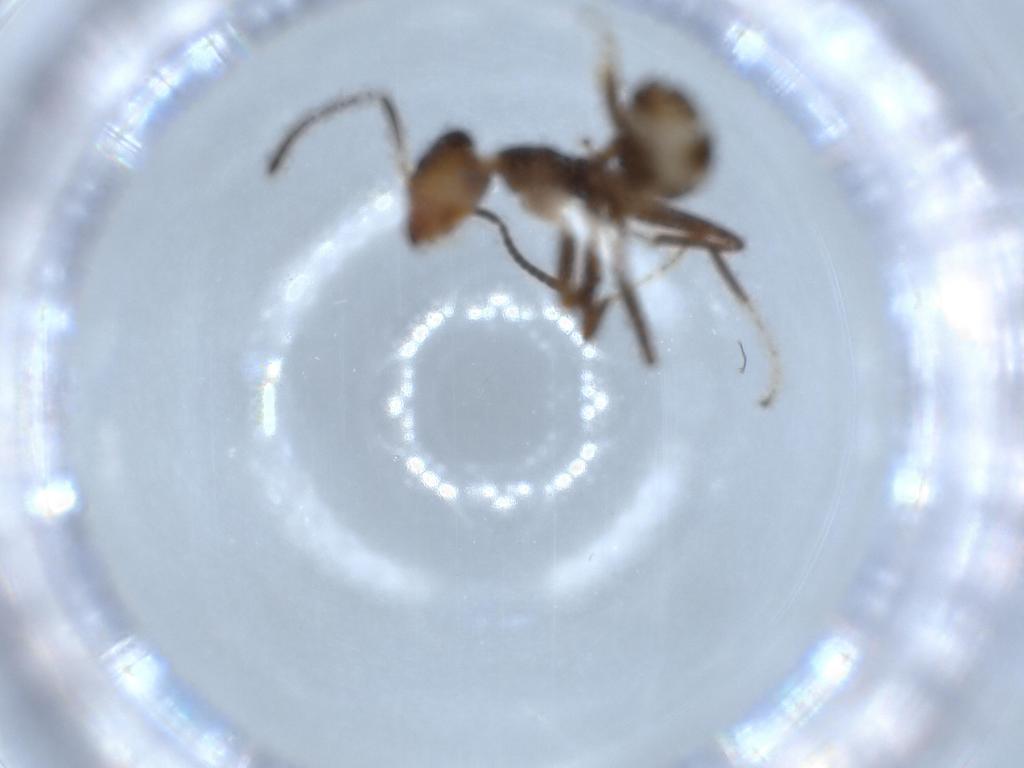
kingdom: Animalia
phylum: Arthropoda
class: Insecta
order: Hymenoptera
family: Formicidae
